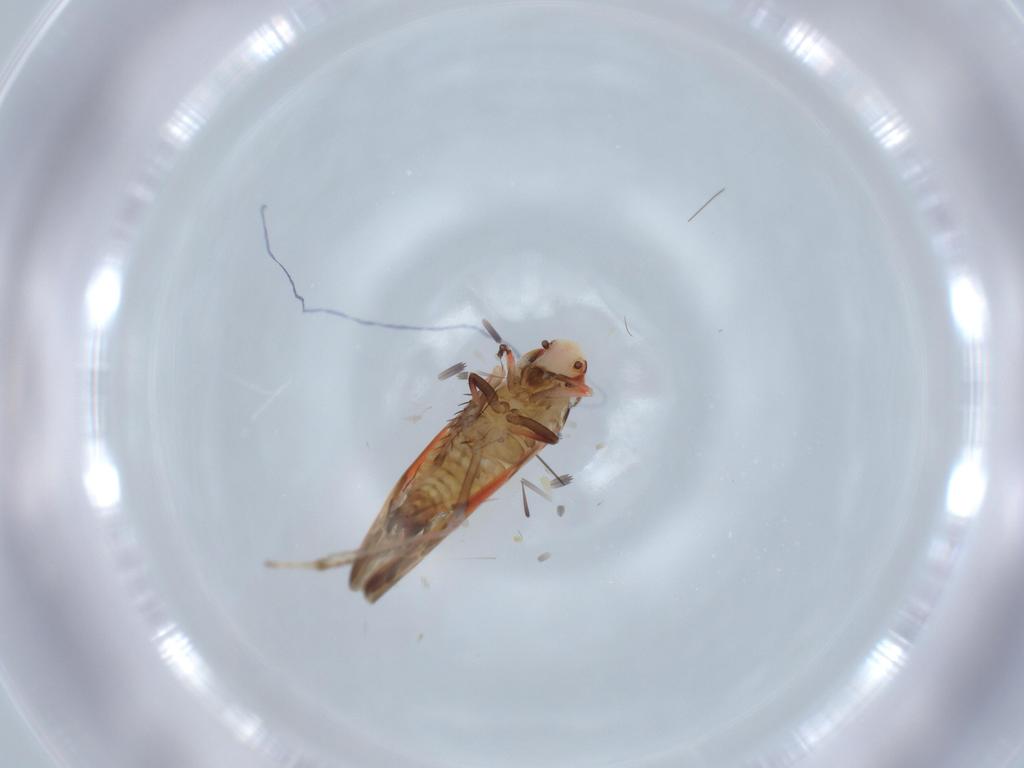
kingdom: Animalia
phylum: Arthropoda
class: Insecta
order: Hemiptera
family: Cicadellidae
